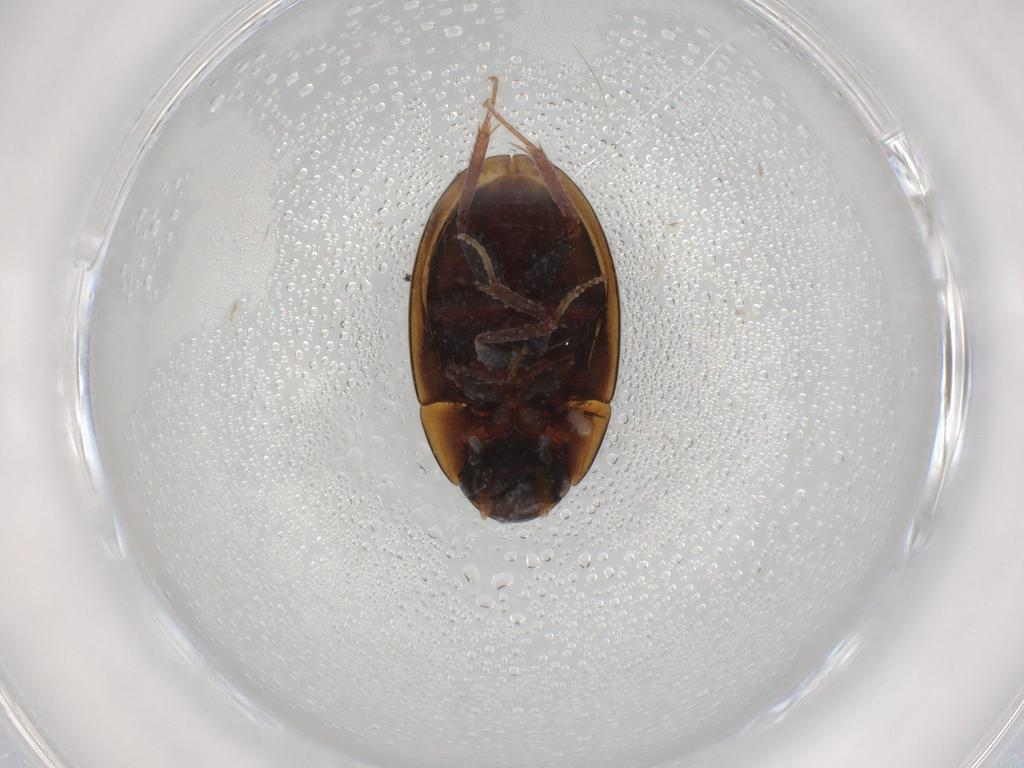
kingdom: Animalia
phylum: Arthropoda
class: Insecta
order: Coleoptera
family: Hydrophilidae
